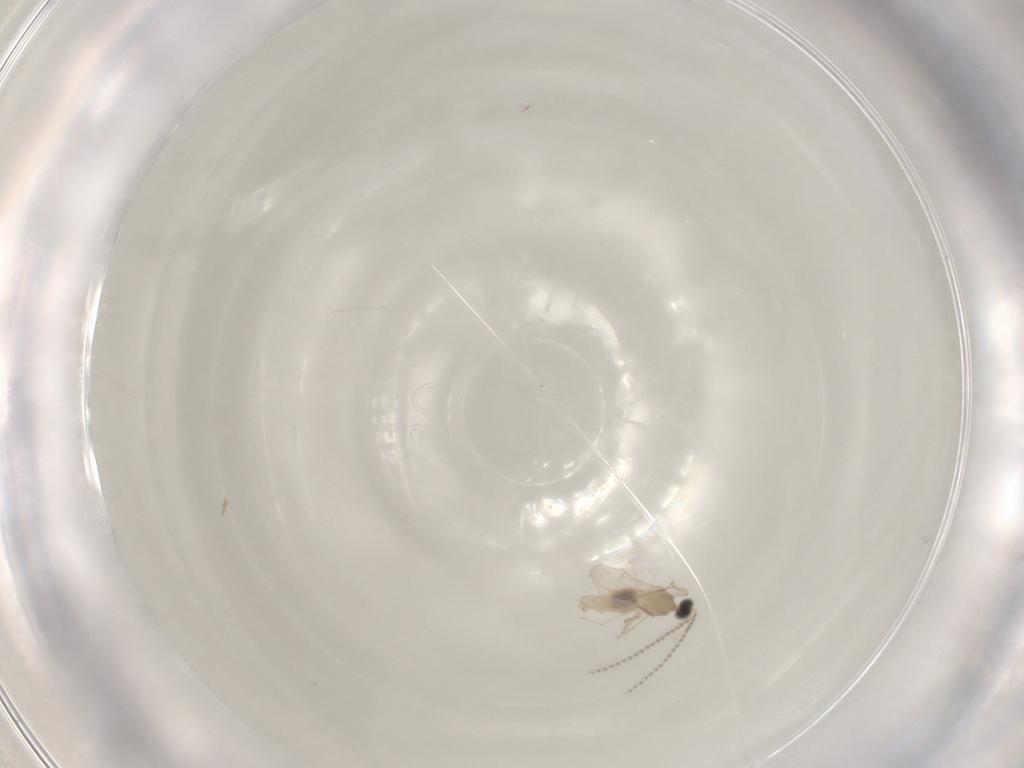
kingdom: Animalia
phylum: Arthropoda
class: Insecta
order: Diptera
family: Cecidomyiidae
